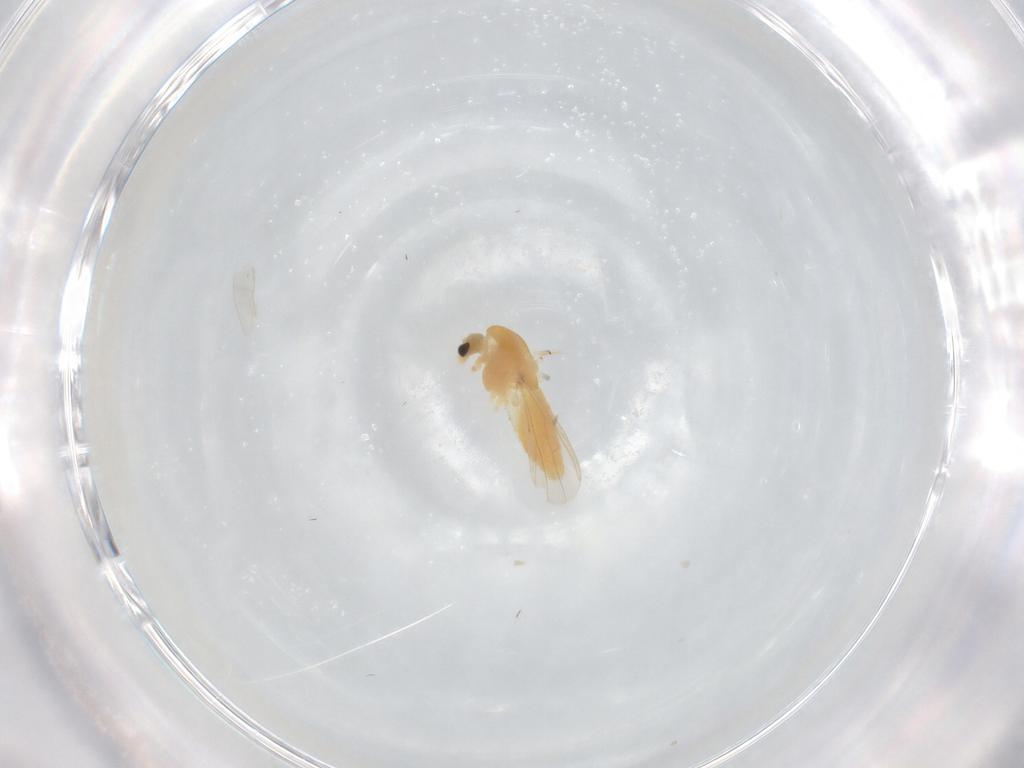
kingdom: Animalia
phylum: Arthropoda
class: Insecta
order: Diptera
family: Chironomidae
